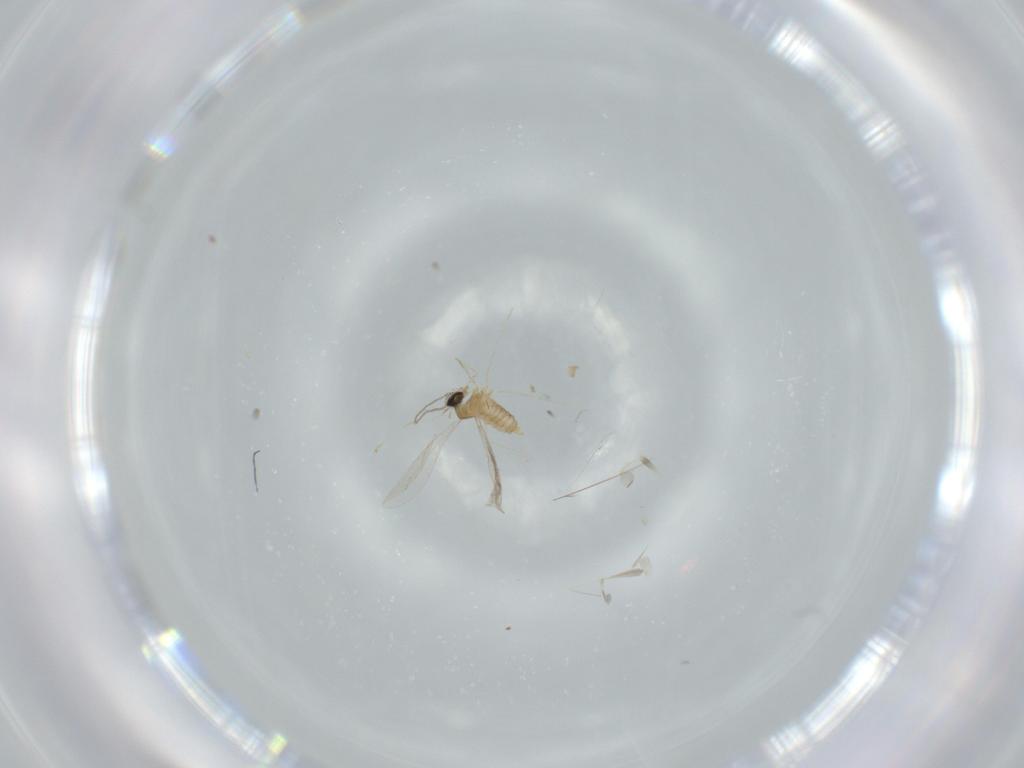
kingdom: Animalia
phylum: Arthropoda
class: Insecta
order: Diptera
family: Cecidomyiidae
